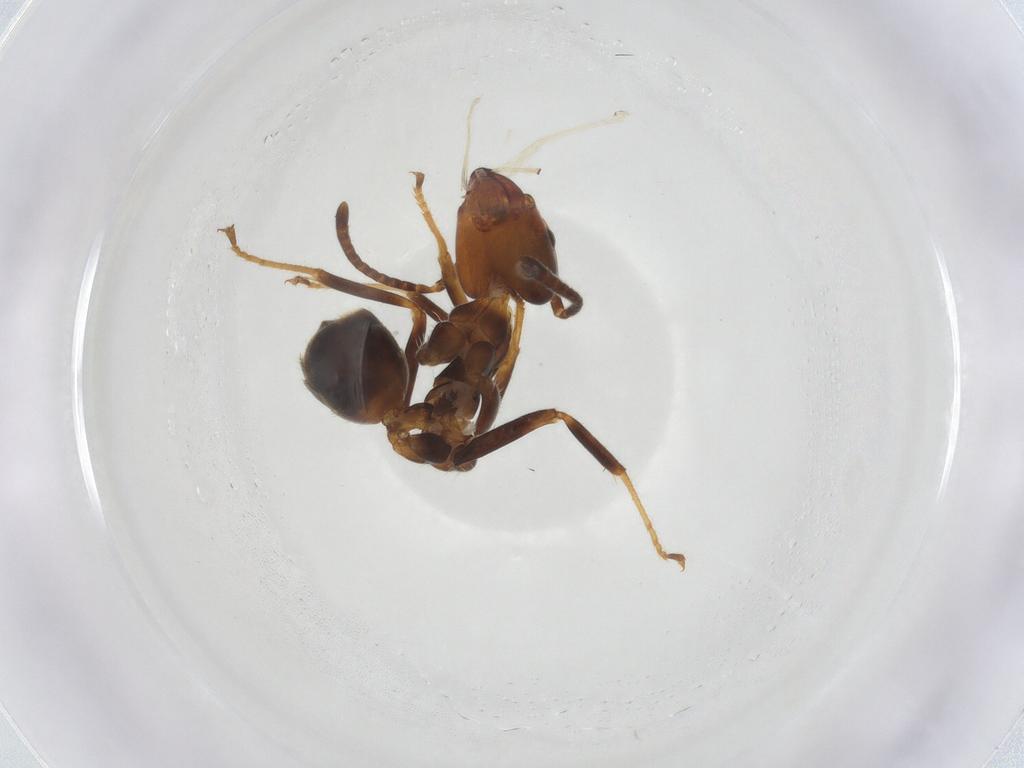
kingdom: Animalia
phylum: Arthropoda
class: Insecta
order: Hymenoptera
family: Formicidae
